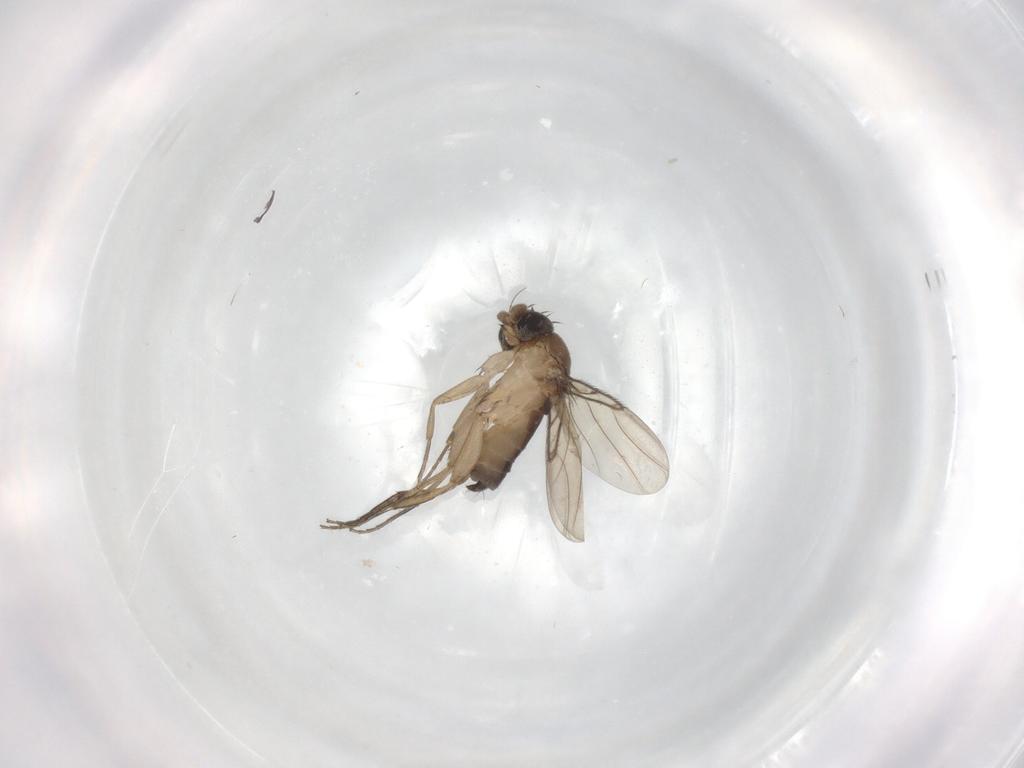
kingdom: Animalia
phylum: Arthropoda
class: Insecta
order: Diptera
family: Phoridae
